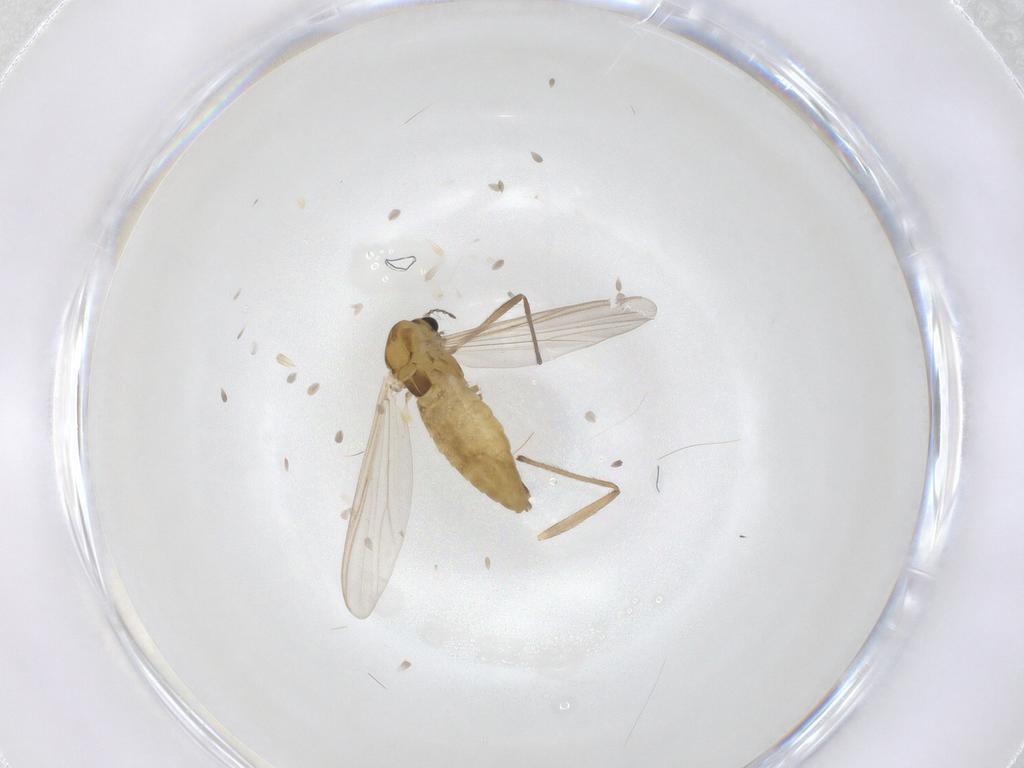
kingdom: Animalia
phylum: Arthropoda
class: Insecta
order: Diptera
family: Chironomidae
